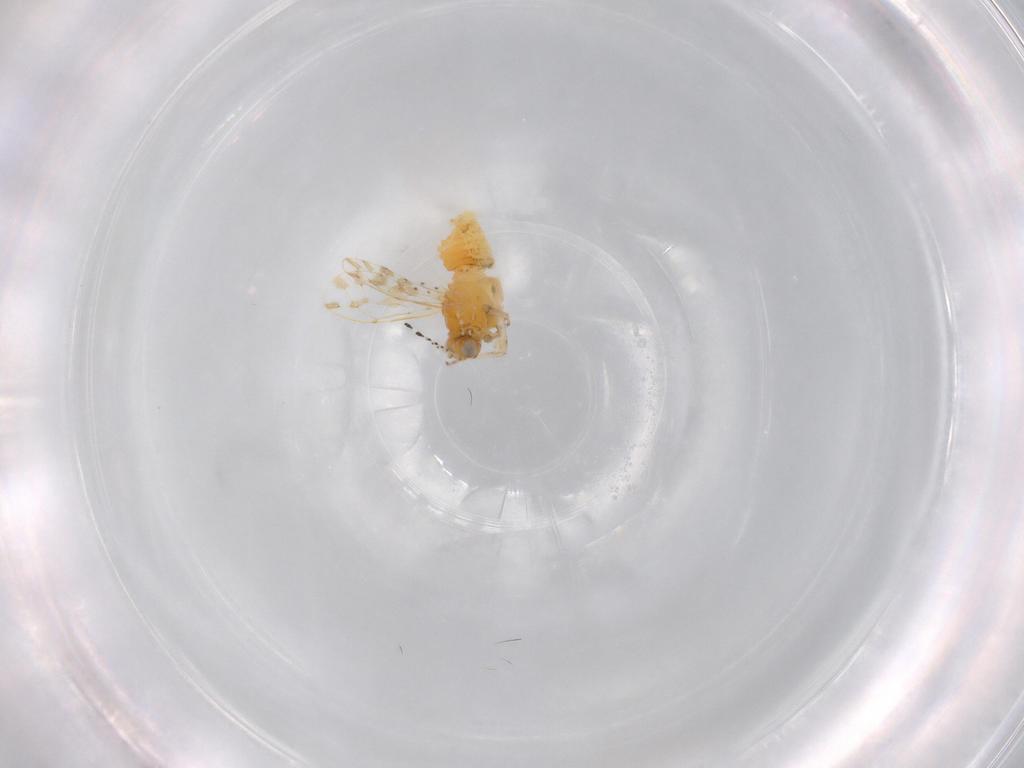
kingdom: Animalia
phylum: Arthropoda
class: Insecta
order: Hemiptera
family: Aphalaridae
